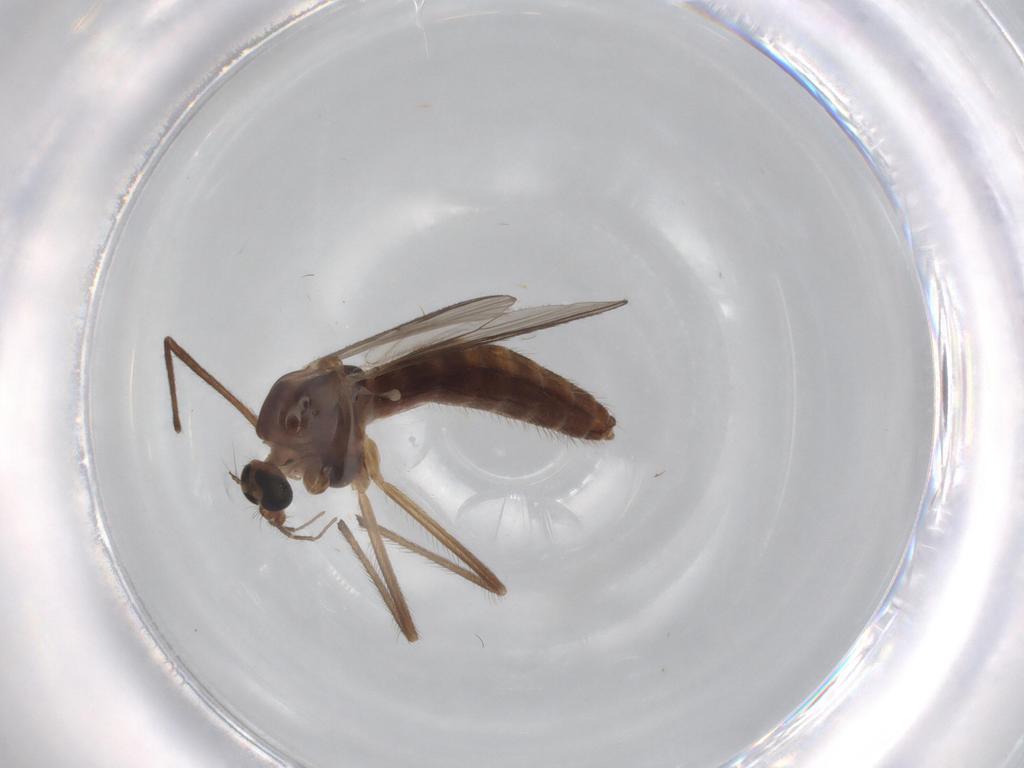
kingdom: Animalia
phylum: Arthropoda
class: Insecta
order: Diptera
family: Chironomidae
